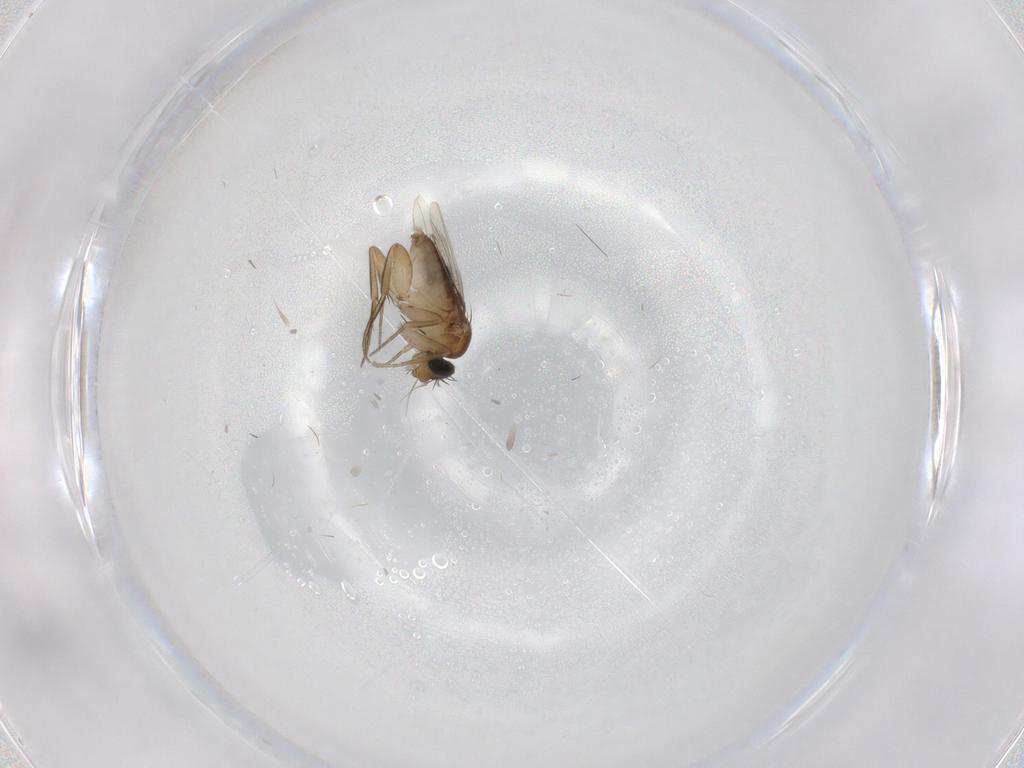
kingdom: Animalia
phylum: Arthropoda
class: Insecta
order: Diptera
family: Phoridae
